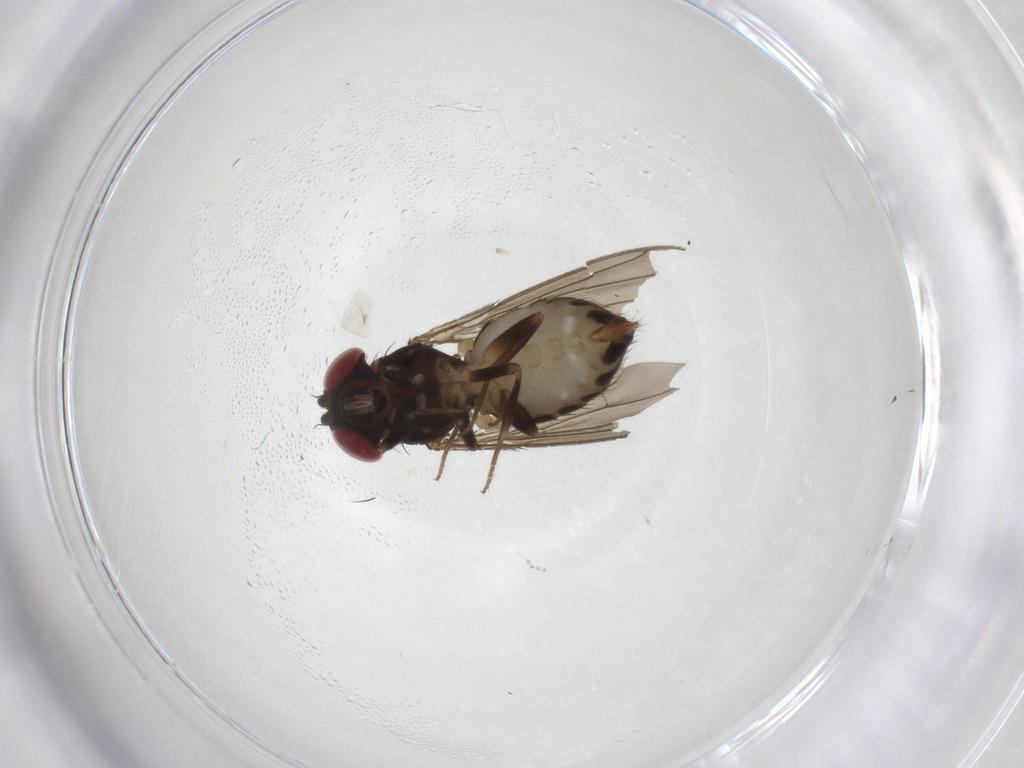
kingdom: Animalia
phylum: Arthropoda
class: Insecta
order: Diptera
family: Drosophilidae
